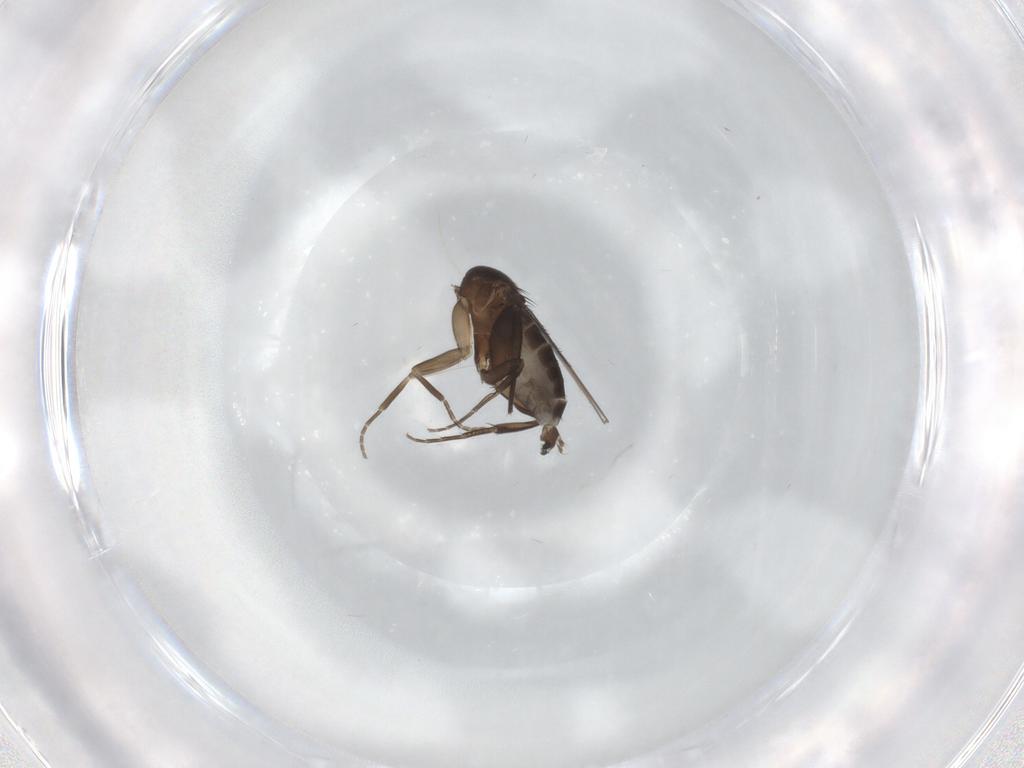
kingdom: Animalia
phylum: Arthropoda
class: Insecta
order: Diptera
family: Phoridae
